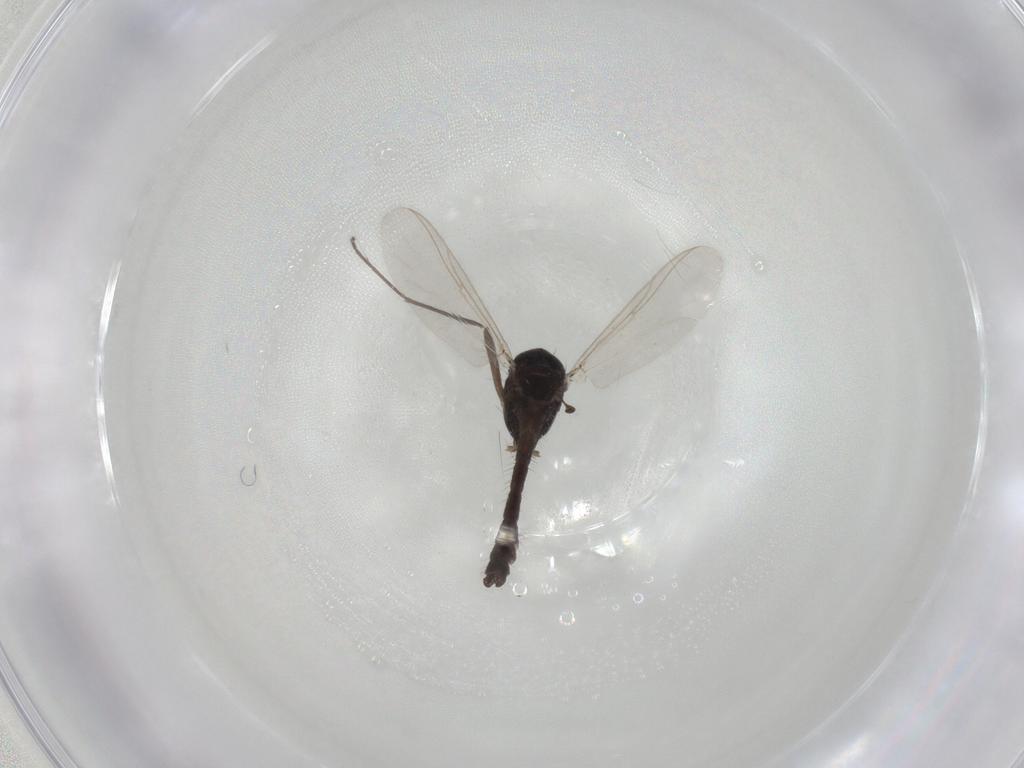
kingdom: Animalia
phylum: Arthropoda
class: Insecta
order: Diptera
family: Chironomidae
